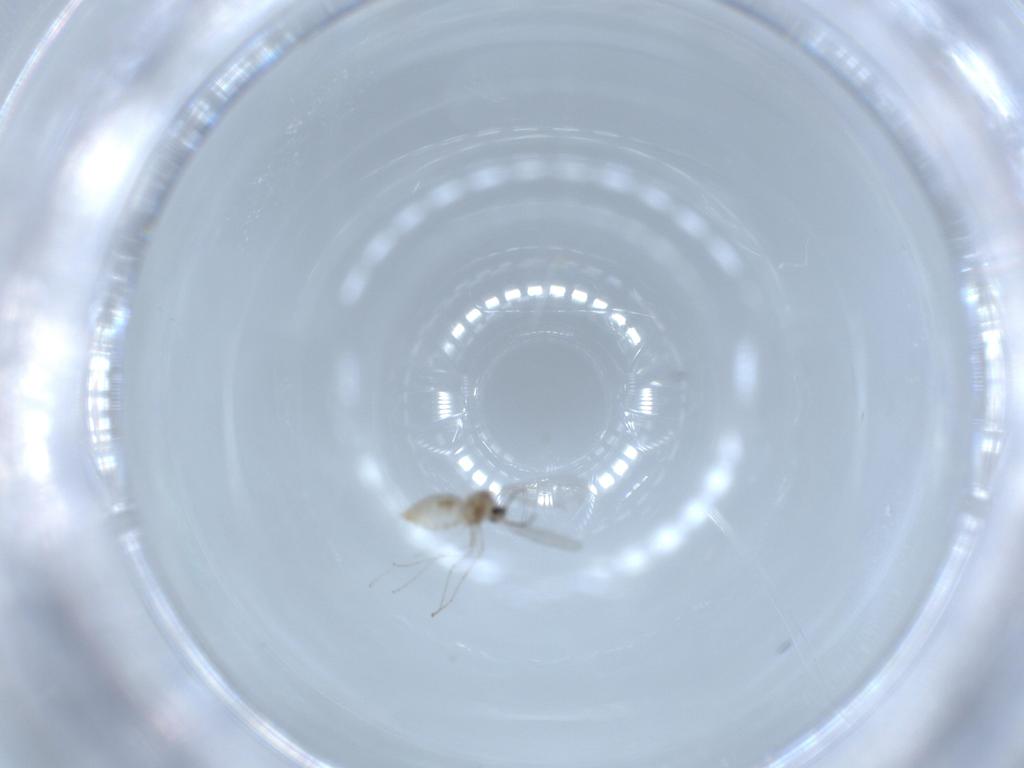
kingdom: Animalia
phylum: Arthropoda
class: Insecta
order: Diptera
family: Cecidomyiidae
